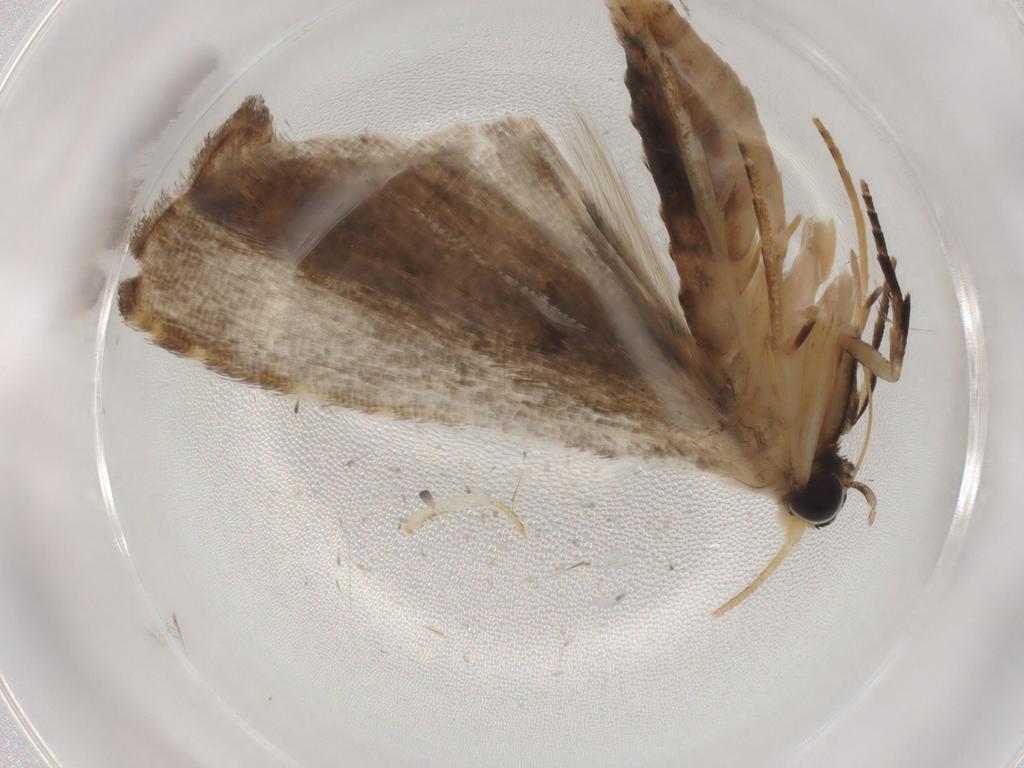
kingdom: Animalia
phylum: Arthropoda
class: Insecta
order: Lepidoptera
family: Noctuidae
